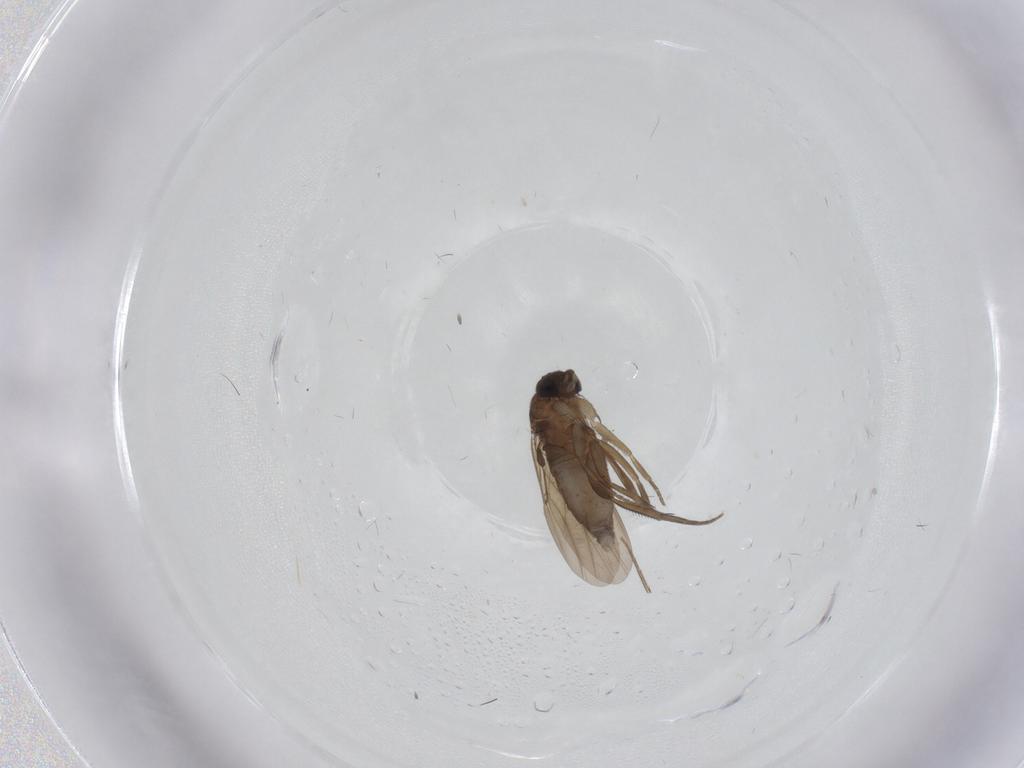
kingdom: Animalia
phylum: Arthropoda
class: Insecta
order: Diptera
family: Phoridae
